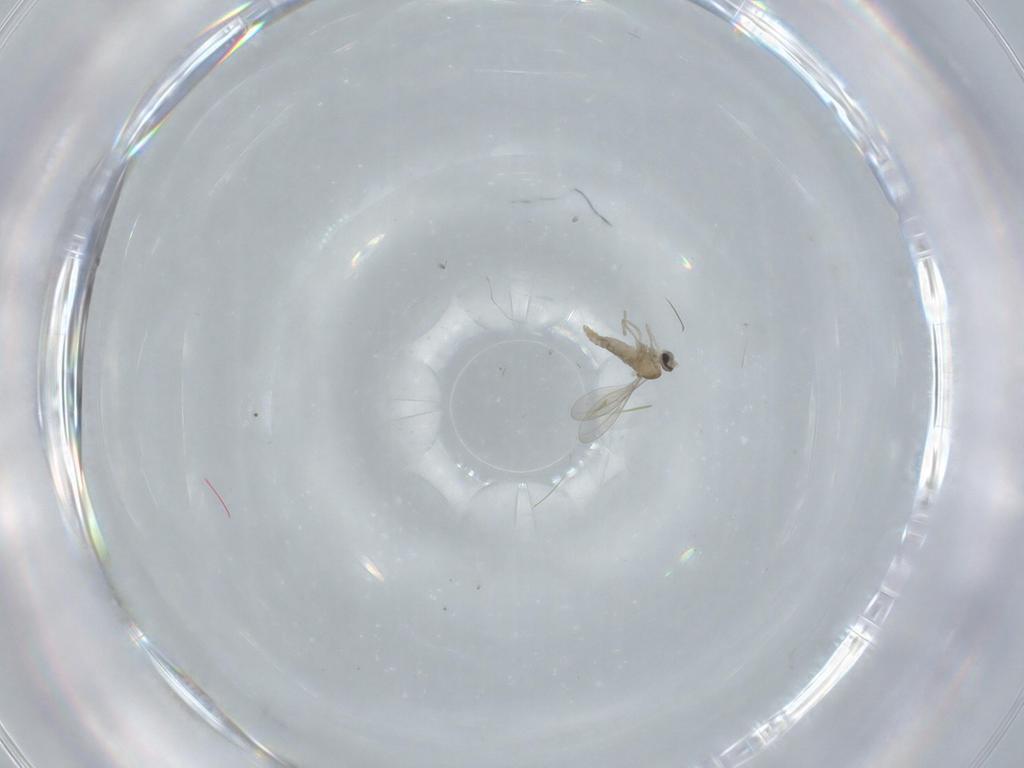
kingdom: Animalia
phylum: Arthropoda
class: Insecta
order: Diptera
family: Cecidomyiidae
